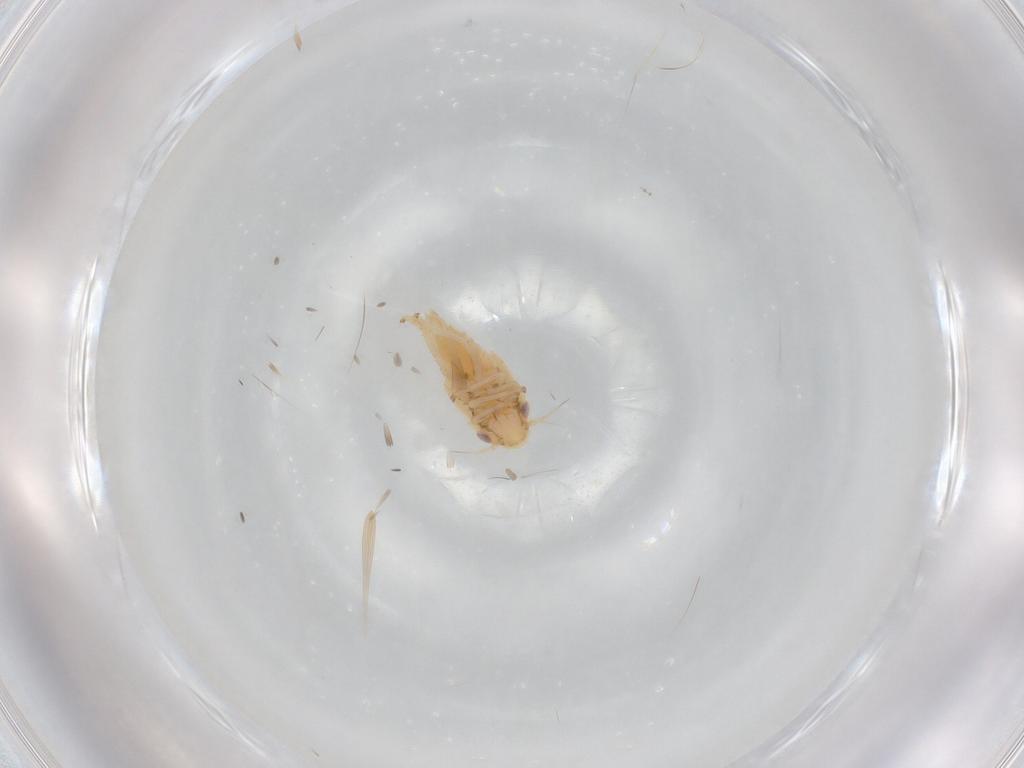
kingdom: Animalia
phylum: Arthropoda
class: Insecta
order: Hemiptera
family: Cicadellidae
